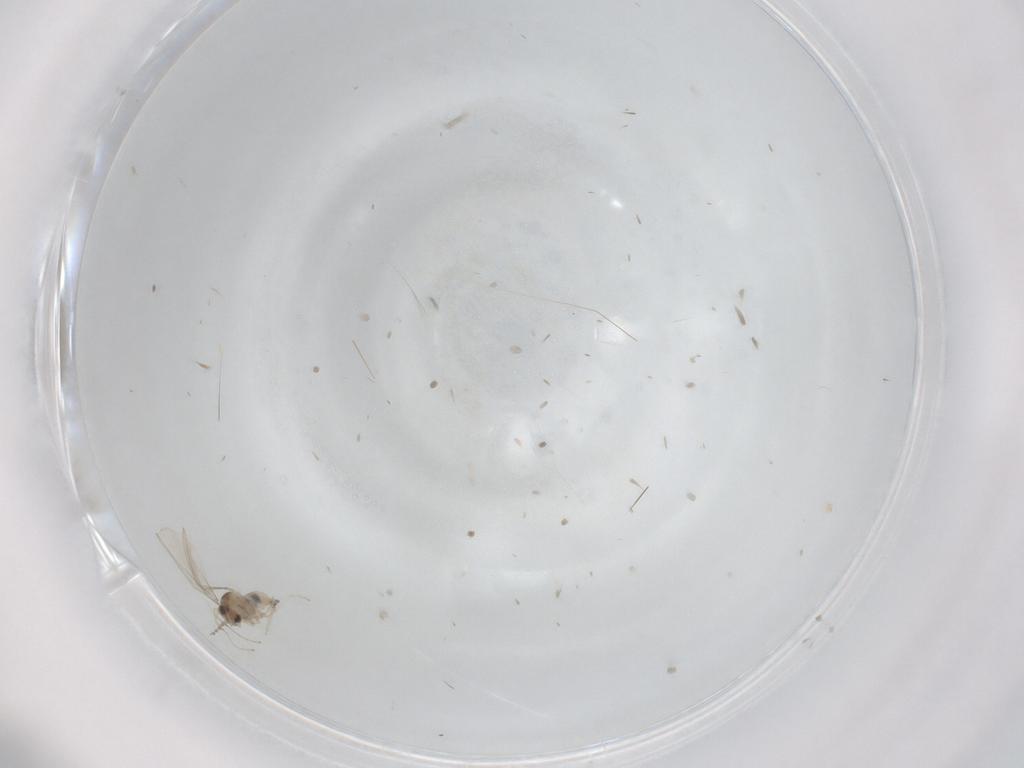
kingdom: Animalia
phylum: Arthropoda
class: Insecta
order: Diptera
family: Cecidomyiidae
